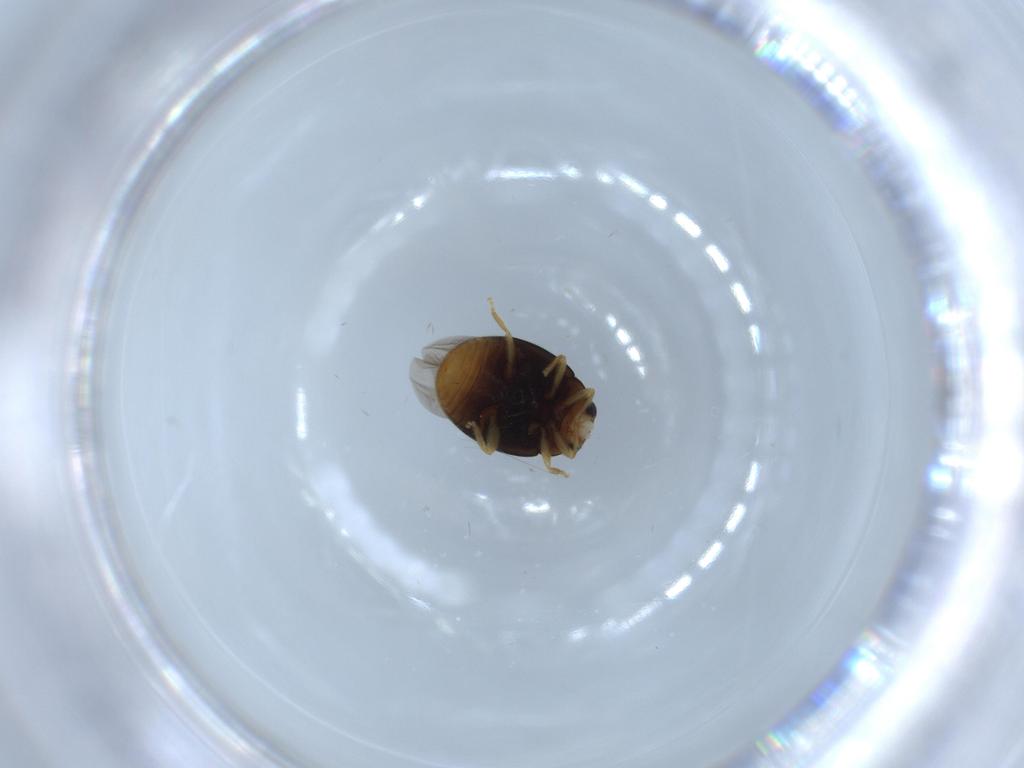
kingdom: Animalia
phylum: Arthropoda
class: Insecta
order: Coleoptera
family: Coccinellidae
